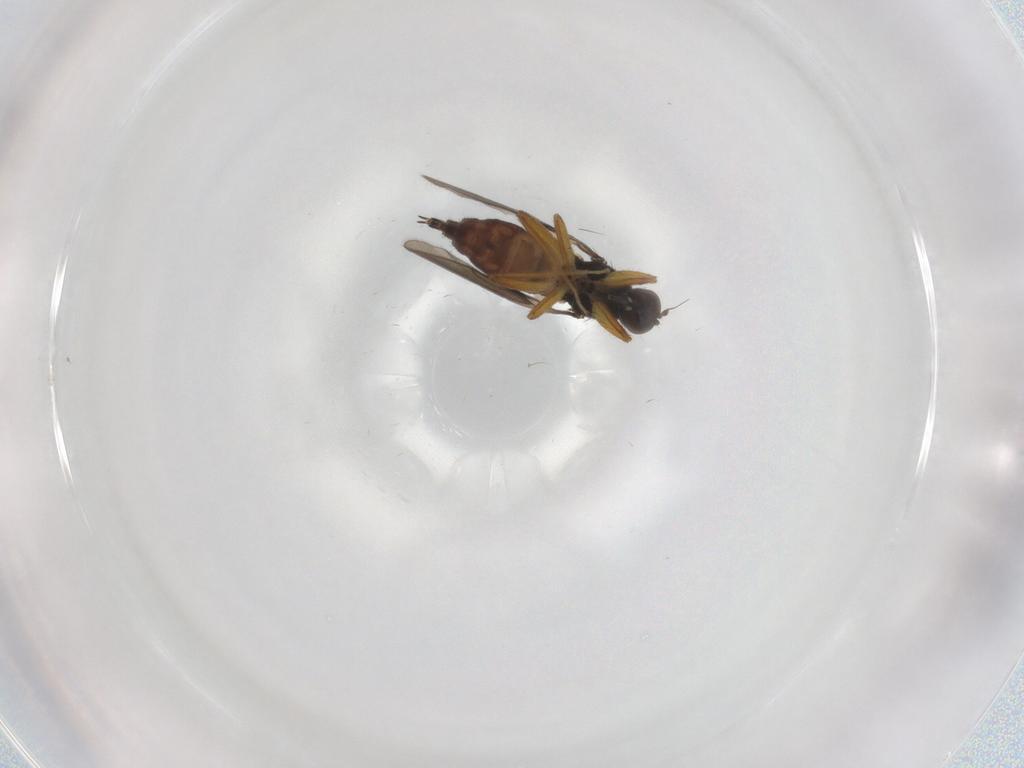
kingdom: Animalia
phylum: Arthropoda
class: Insecta
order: Diptera
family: Hybotidae
